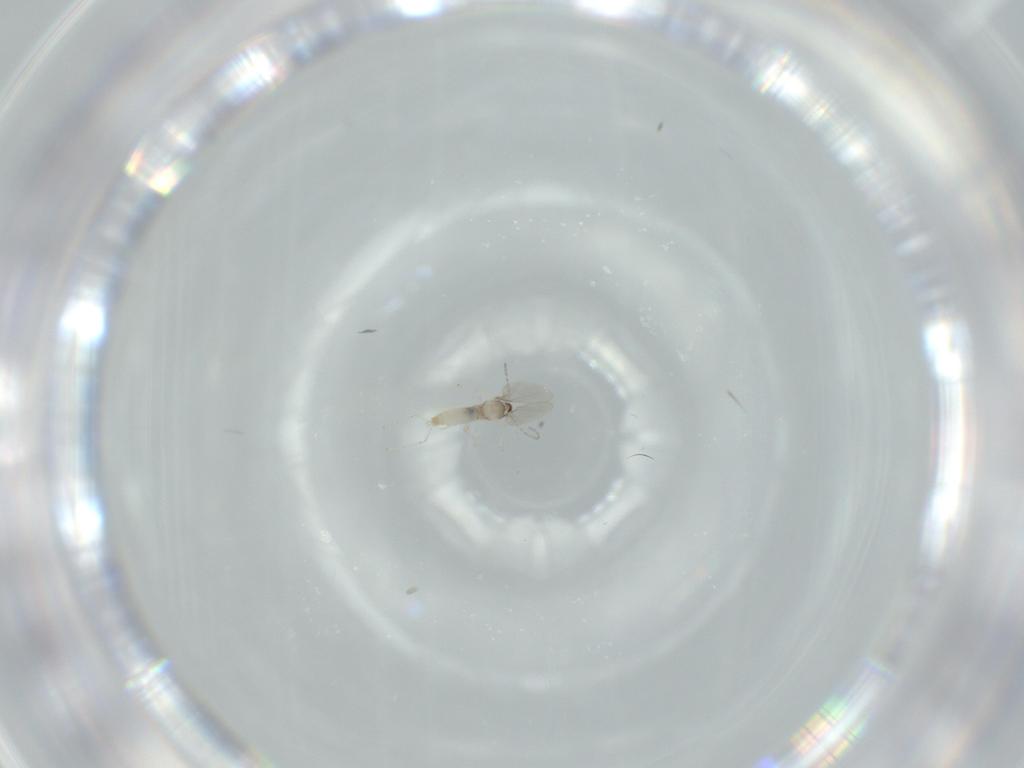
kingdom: Animalia
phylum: Arthropoda
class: Insecta
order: Diptera
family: Cecidomyiidae
